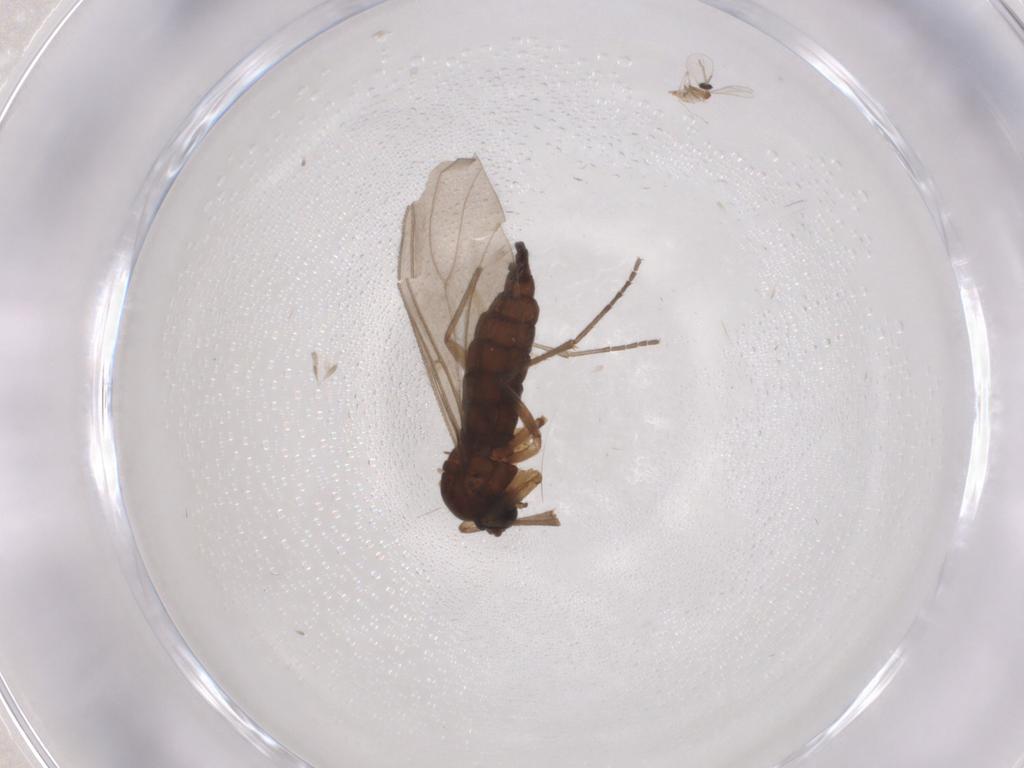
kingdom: Animalia
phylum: Arthropoda
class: Insecta
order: Diptera
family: Sciaridae
